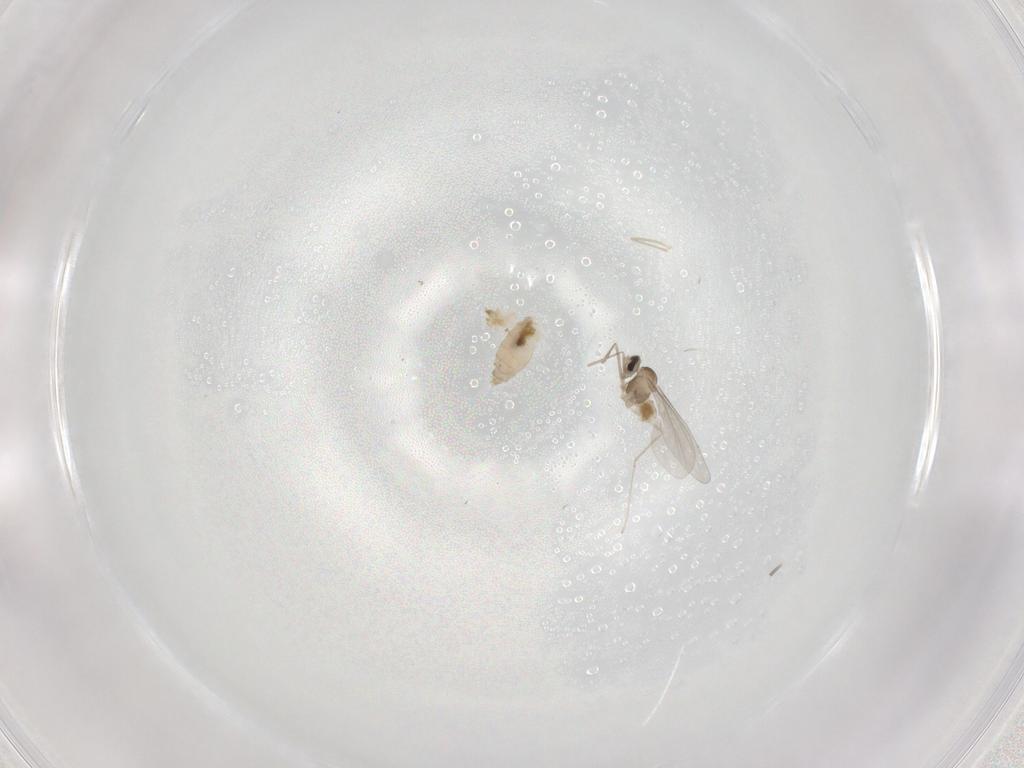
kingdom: Animalia
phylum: Arthropoda
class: Insecta
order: Diptera
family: Cecidomyiidae
